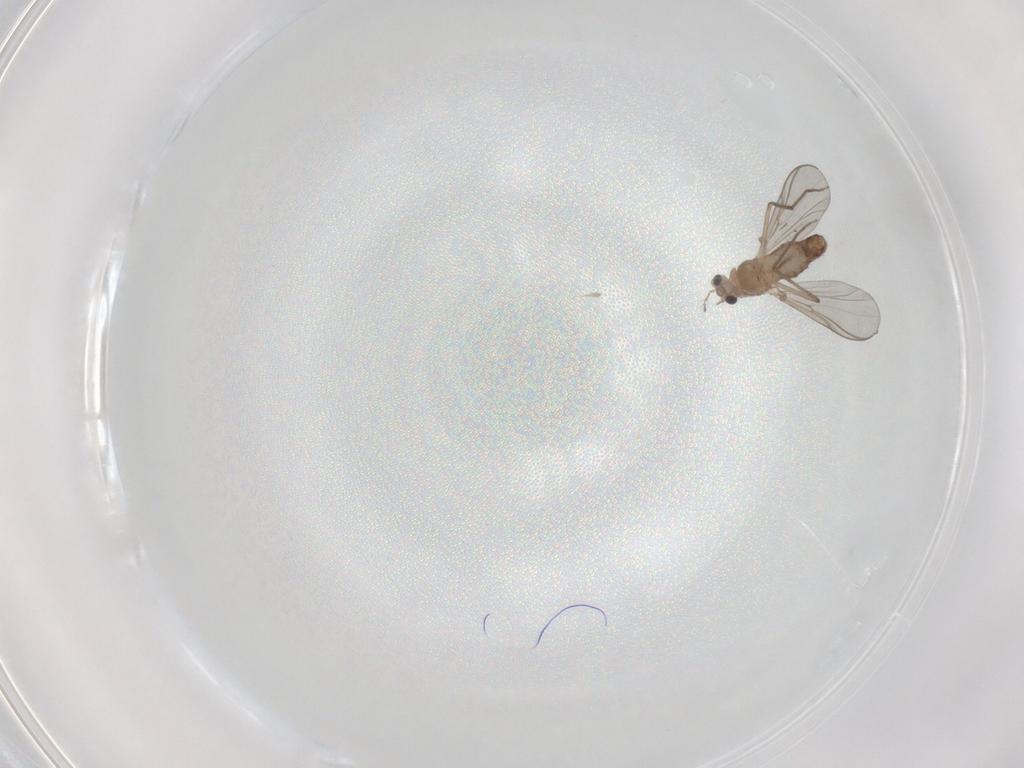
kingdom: Animalia
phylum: Arthropoda
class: Insecta
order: Diptera
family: Chironomidae
